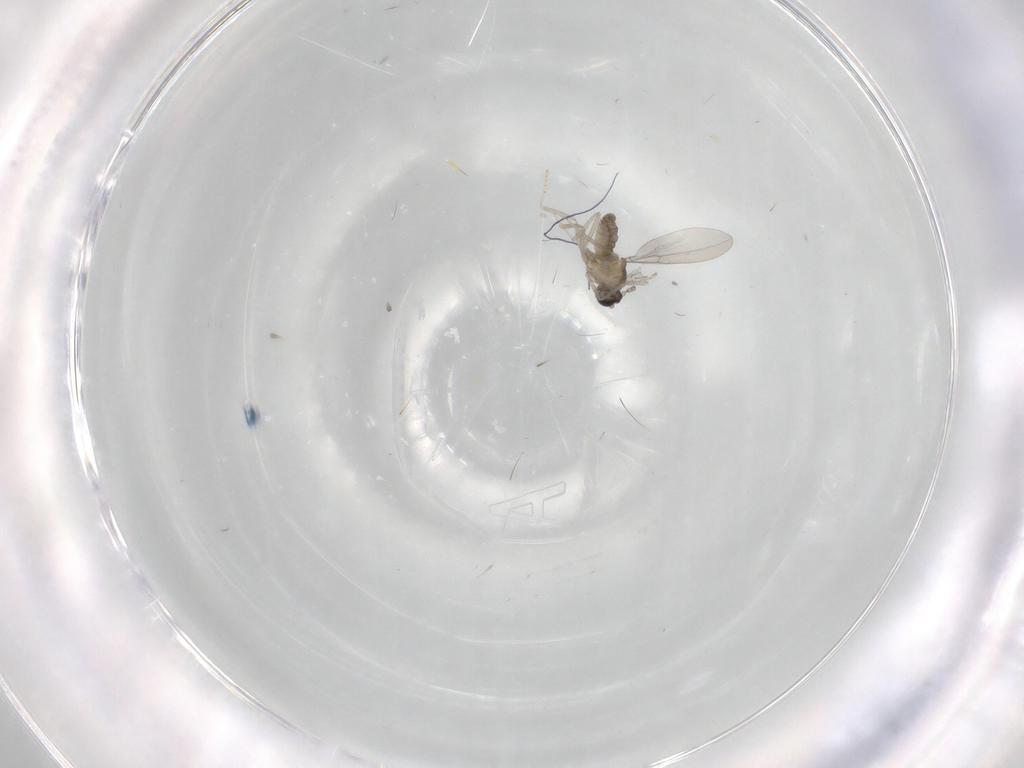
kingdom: Animalia
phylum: Arthropoda
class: Insecta
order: Diptera
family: Cecidomyiidae
